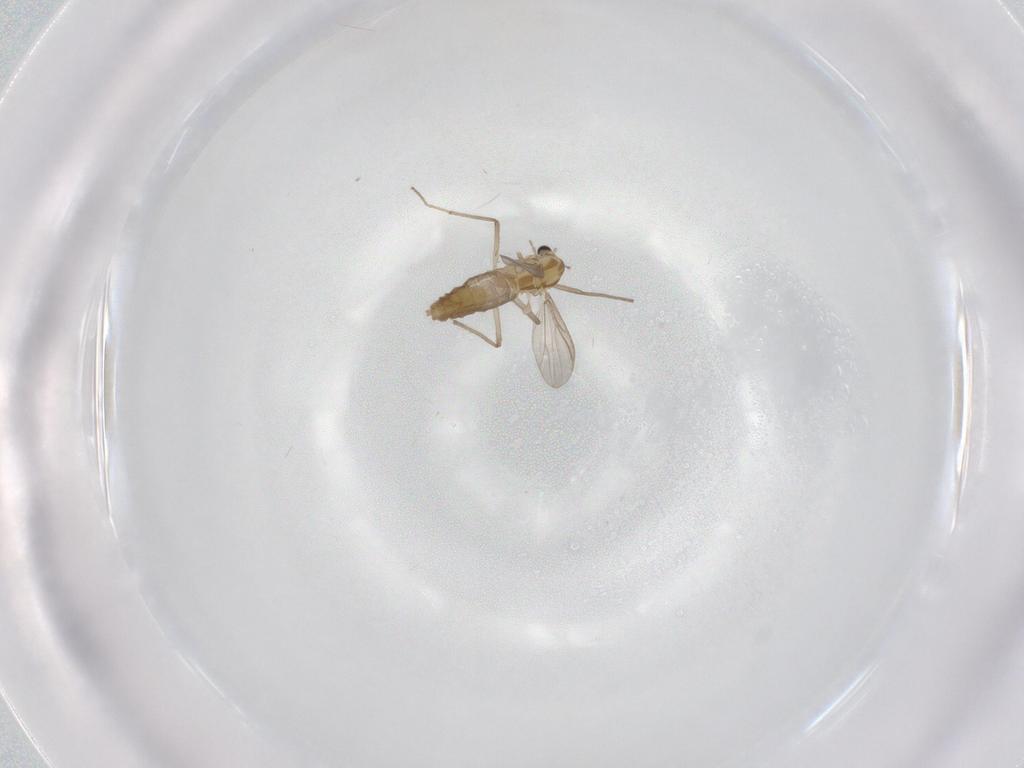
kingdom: Animalia
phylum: Arthropoda
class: Insecta
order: Diptera
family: Chironomidae
